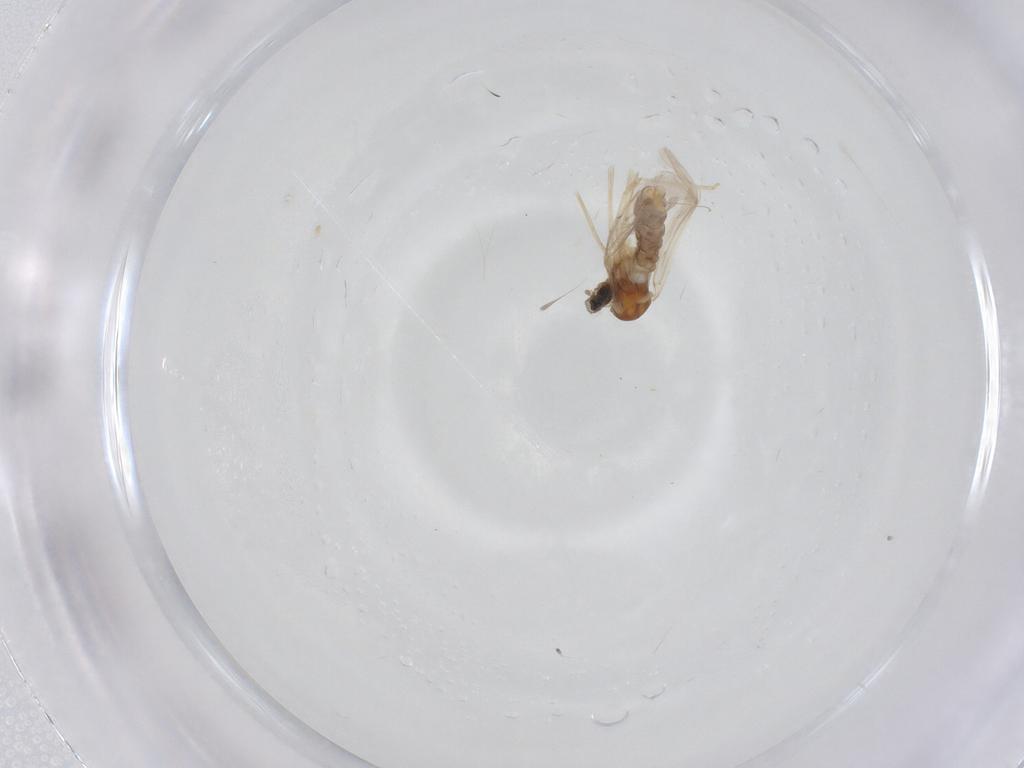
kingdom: Animalia
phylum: Arthropoda
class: Insecta
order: Diptera
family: Cecidomyiidae
